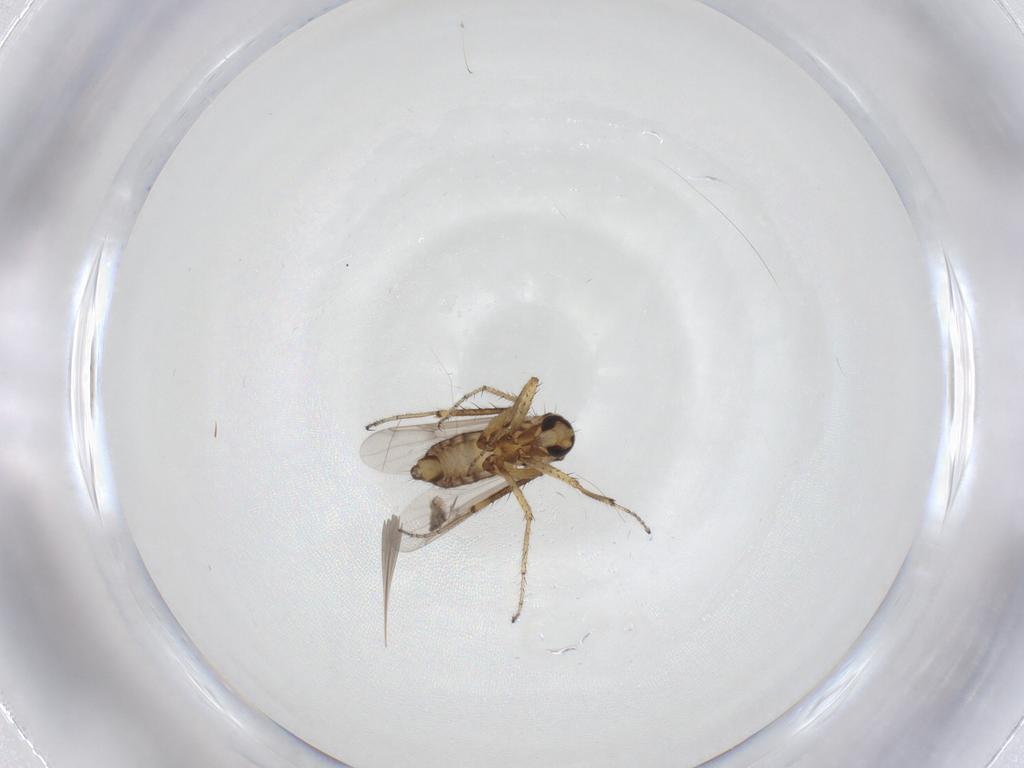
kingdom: Animalia
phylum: Arthropoda
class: Insecta
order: Diptera
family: Ceratopogonidae
